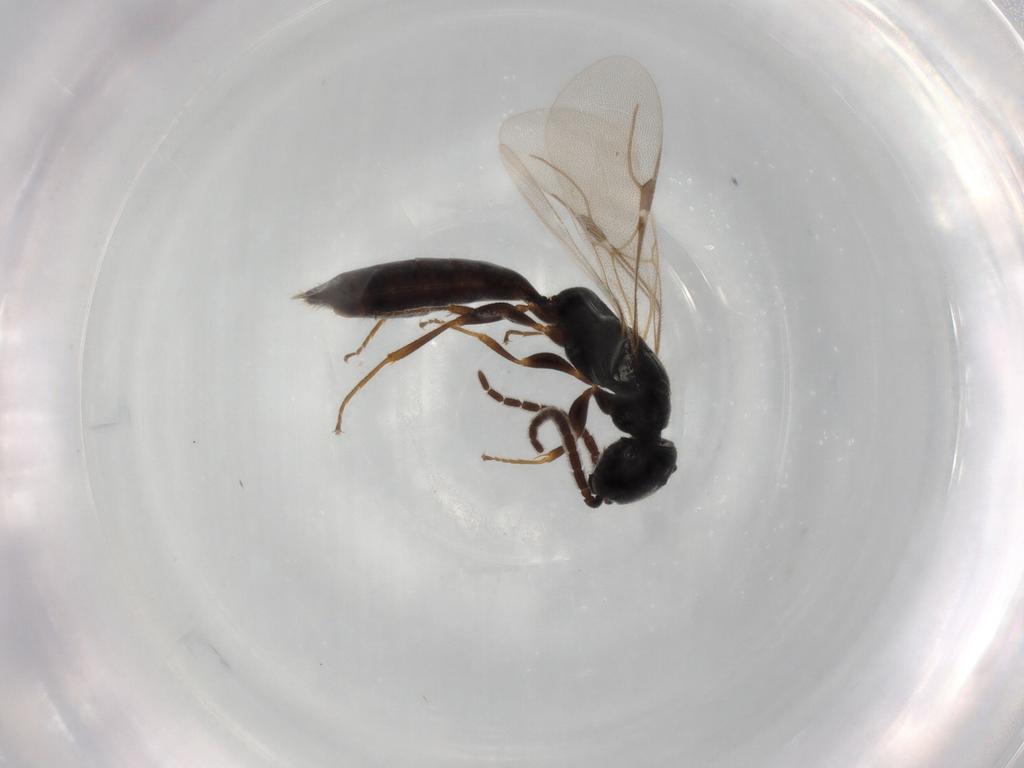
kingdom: Animalia
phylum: Arthropoda
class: Insecta
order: Hymenoptera
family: Bethylidae
